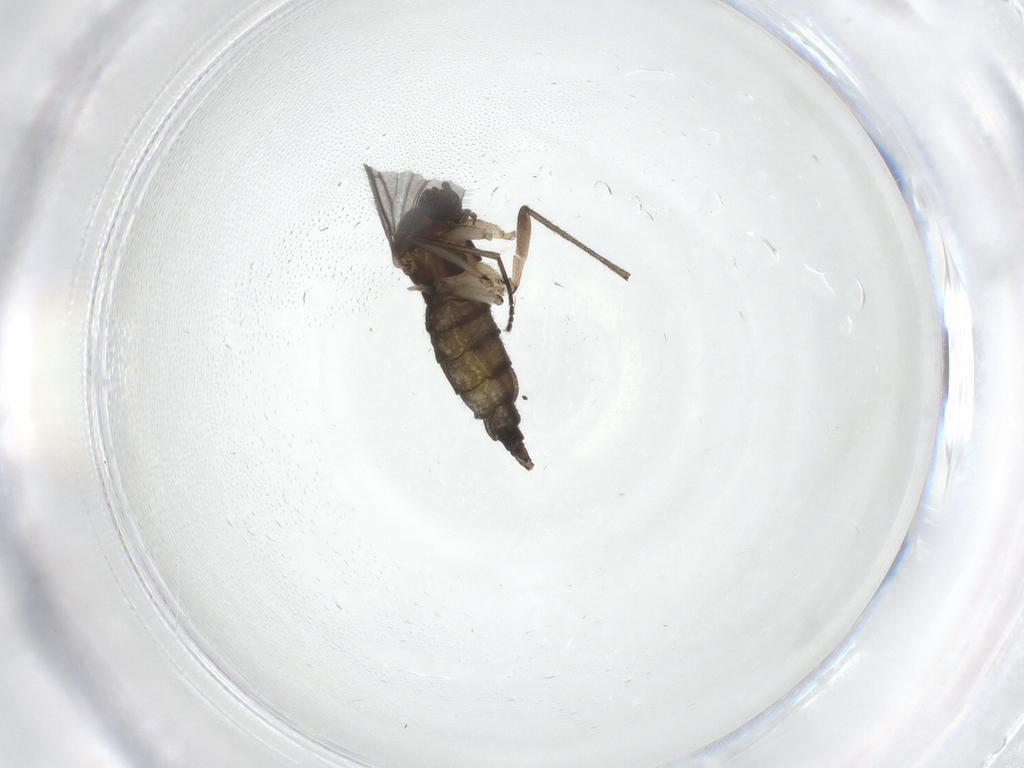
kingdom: Animalia
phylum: Arthropoda
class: Insecta
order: Diptera
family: Sciaridae
